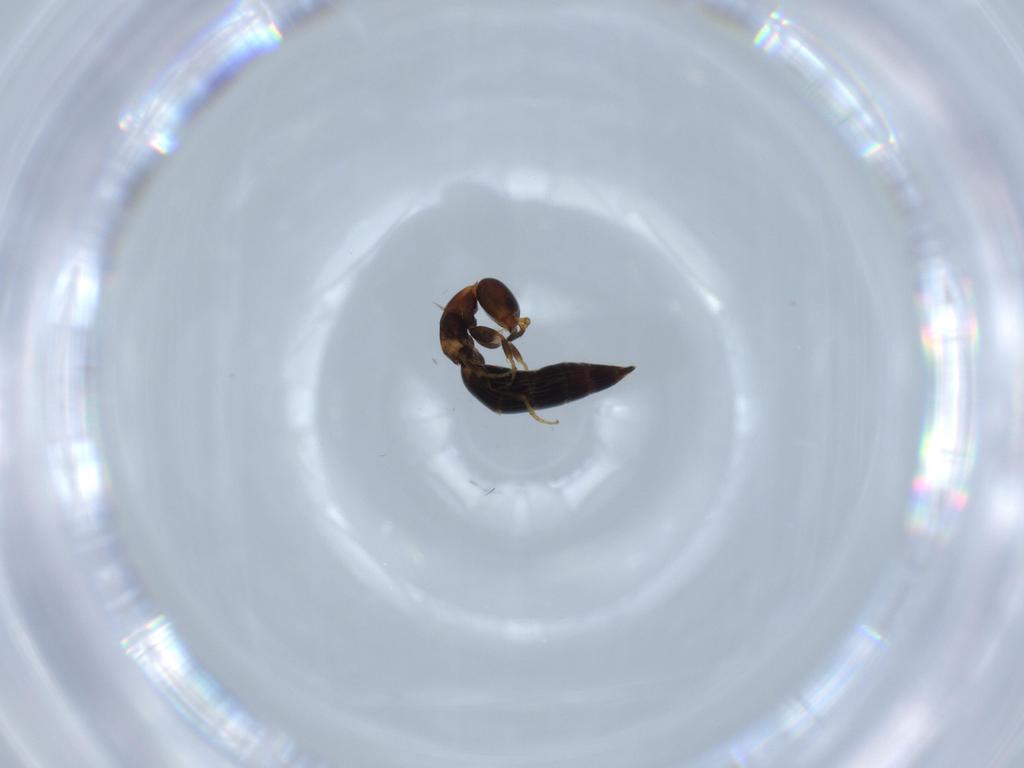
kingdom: Animalia
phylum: Arthropoda
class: Insecta
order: Hymenoptera
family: Bethylidae
